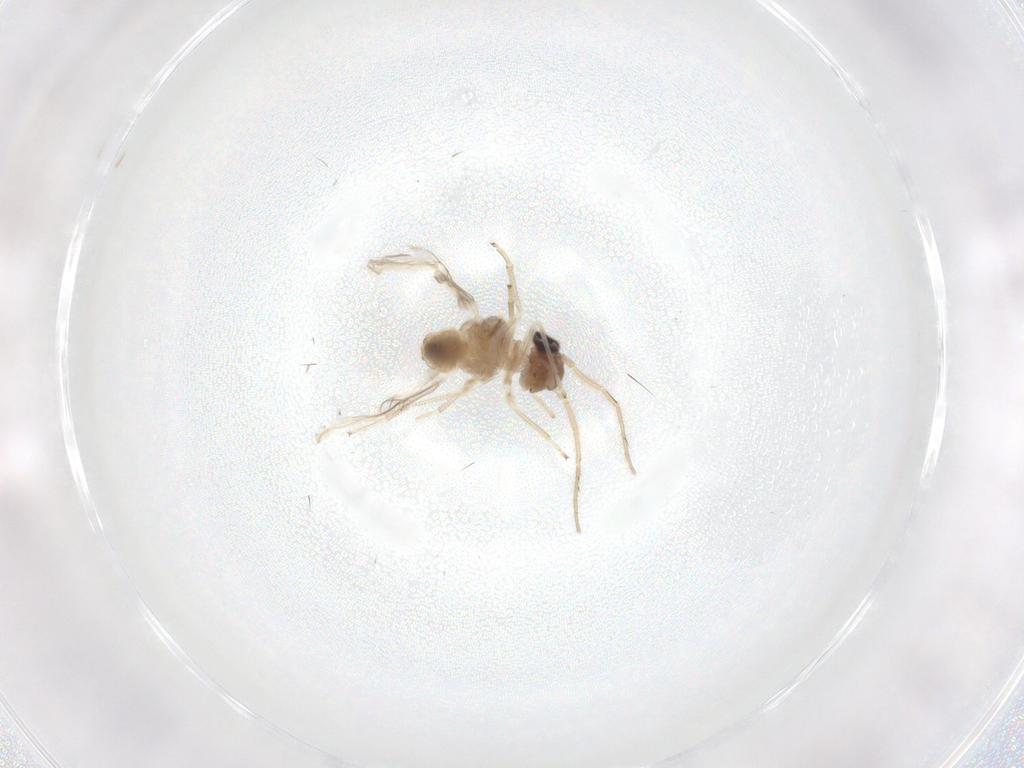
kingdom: Animalia
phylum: Arthropoda
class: Insecta
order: Psocodea
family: Caeciliusidae
